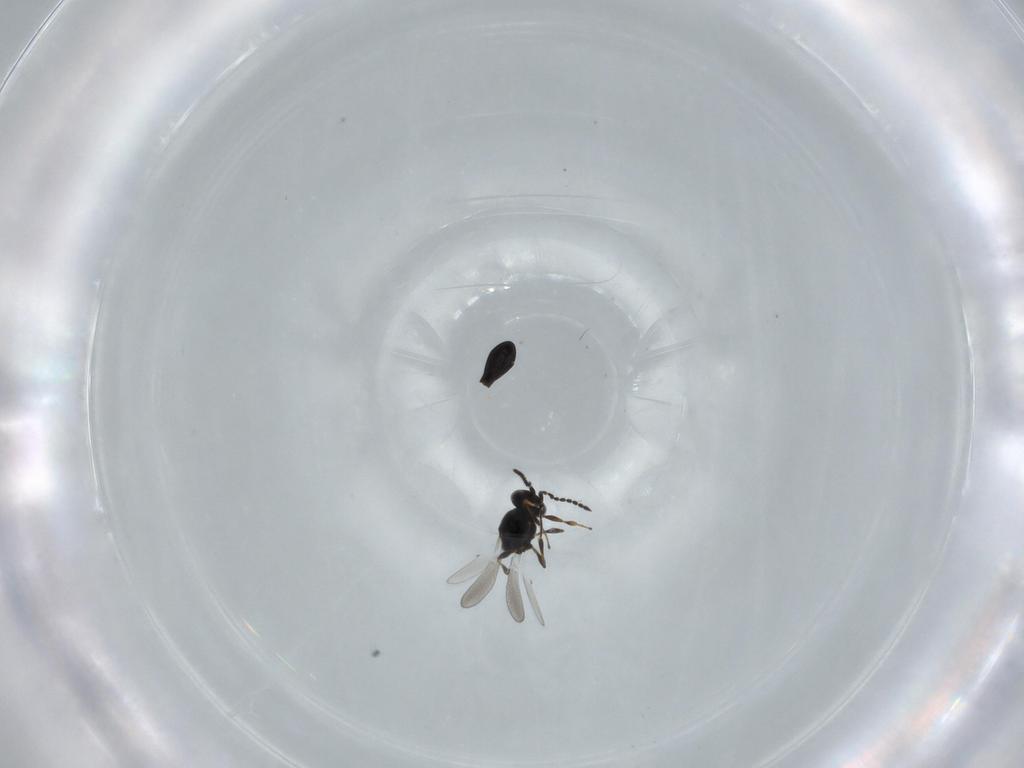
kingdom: Animalia
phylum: Arthropoda
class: Insecta
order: Hymenoptera
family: Platygastridae
